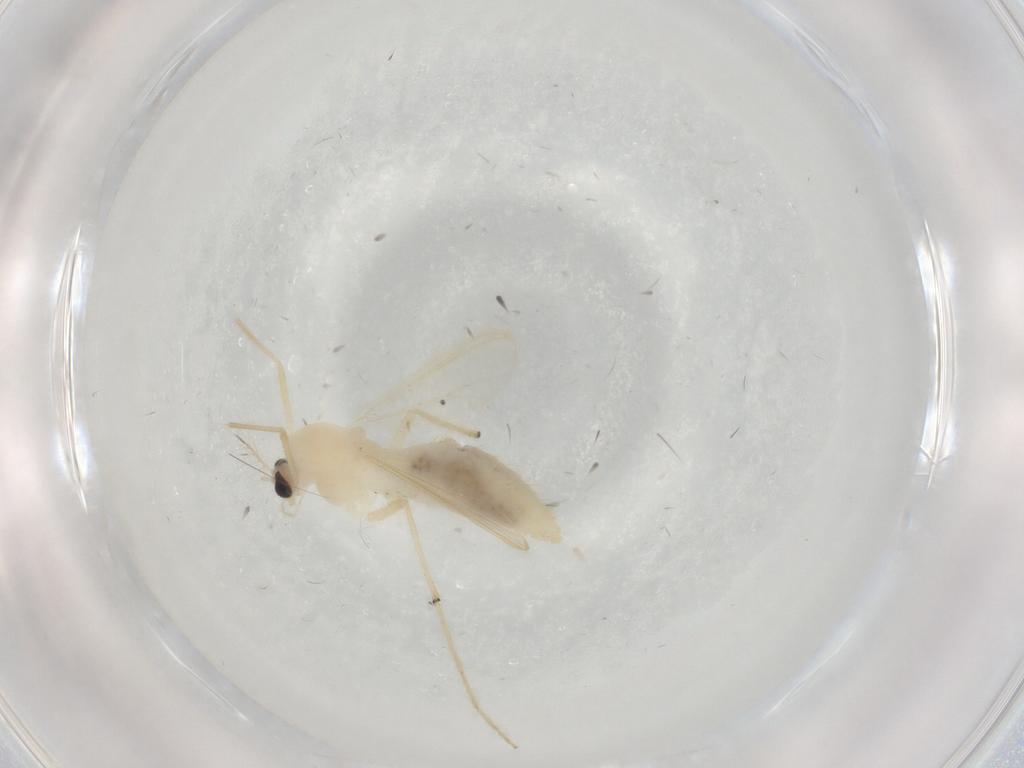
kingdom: Animalia
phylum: Arthropoda
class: Insecta
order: Diptera
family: Chironomidae
